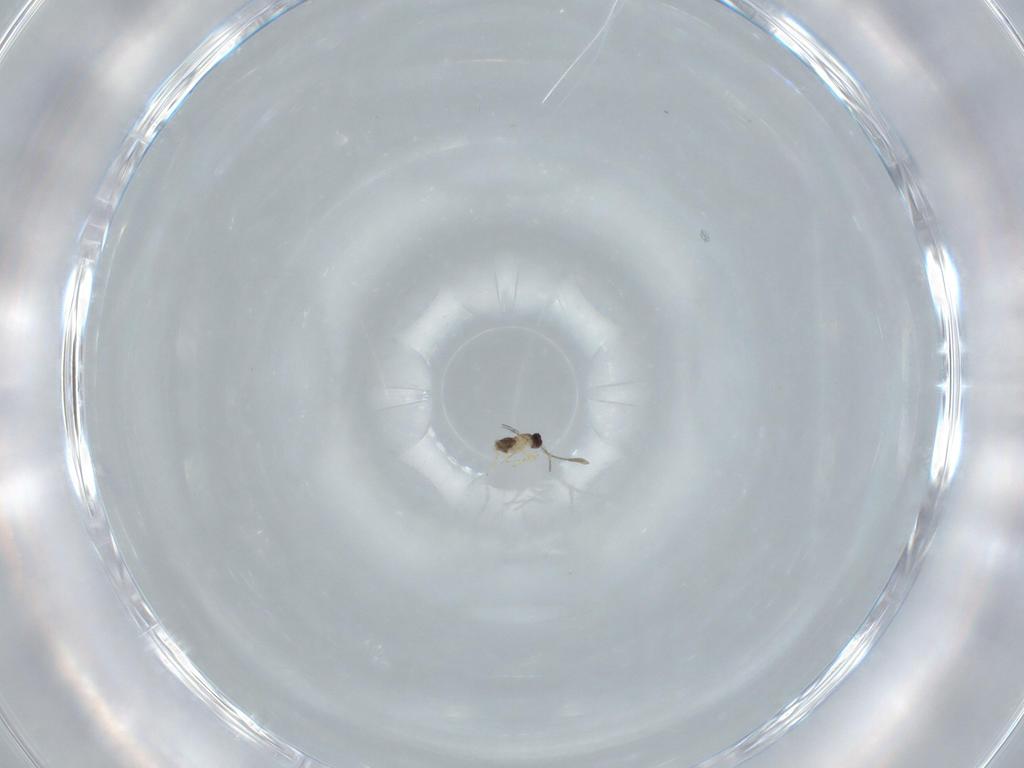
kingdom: Animalia
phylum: Arthropoda
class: Insecta
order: Hymenoptera
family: Mymaridae
